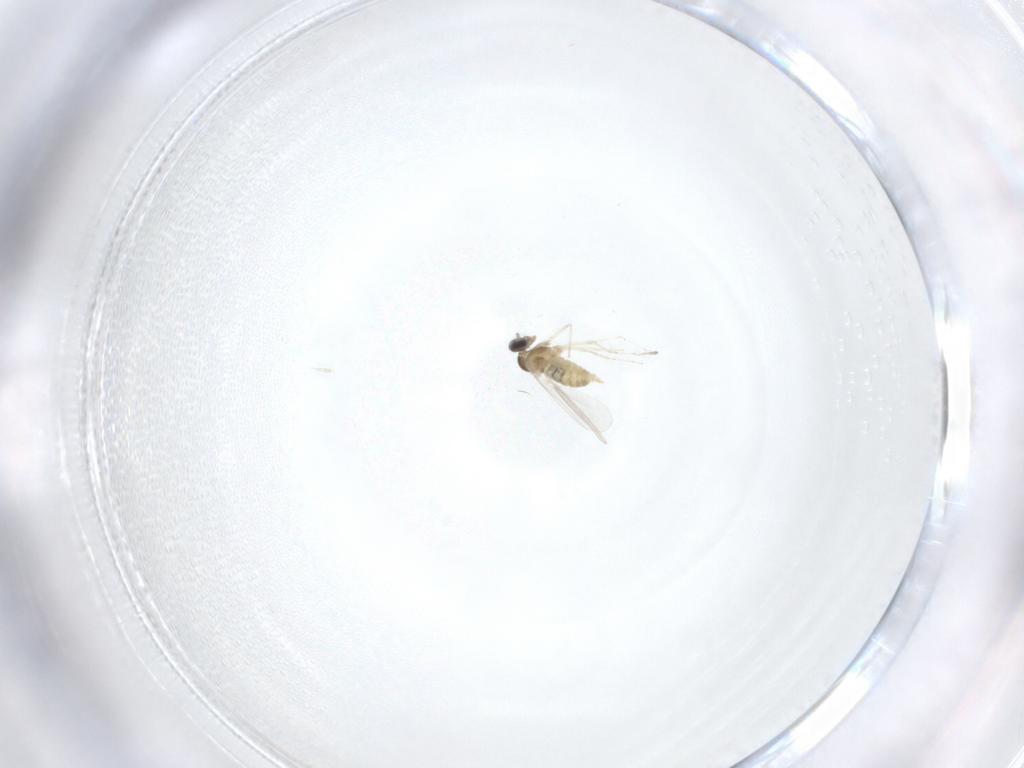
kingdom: Animalia
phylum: Arthropoda
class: Insecta
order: Diptera
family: Cecidomyiidae
